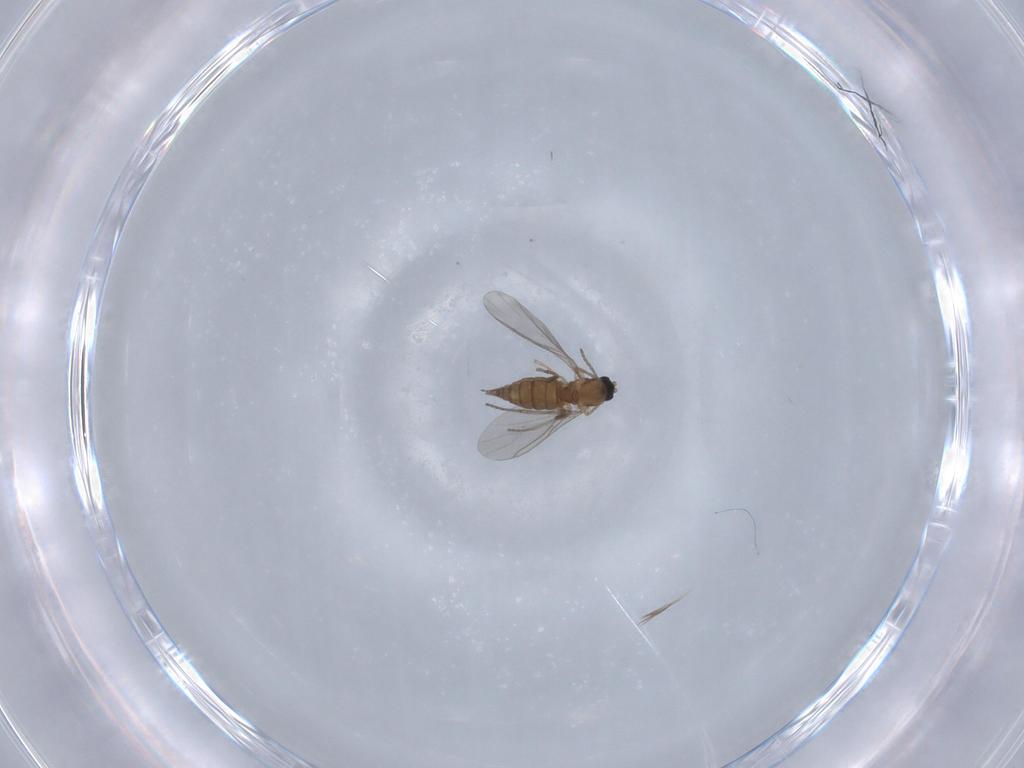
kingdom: Animalia
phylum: Arthropoda
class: Insecta
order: Diptera
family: Sciaridae
